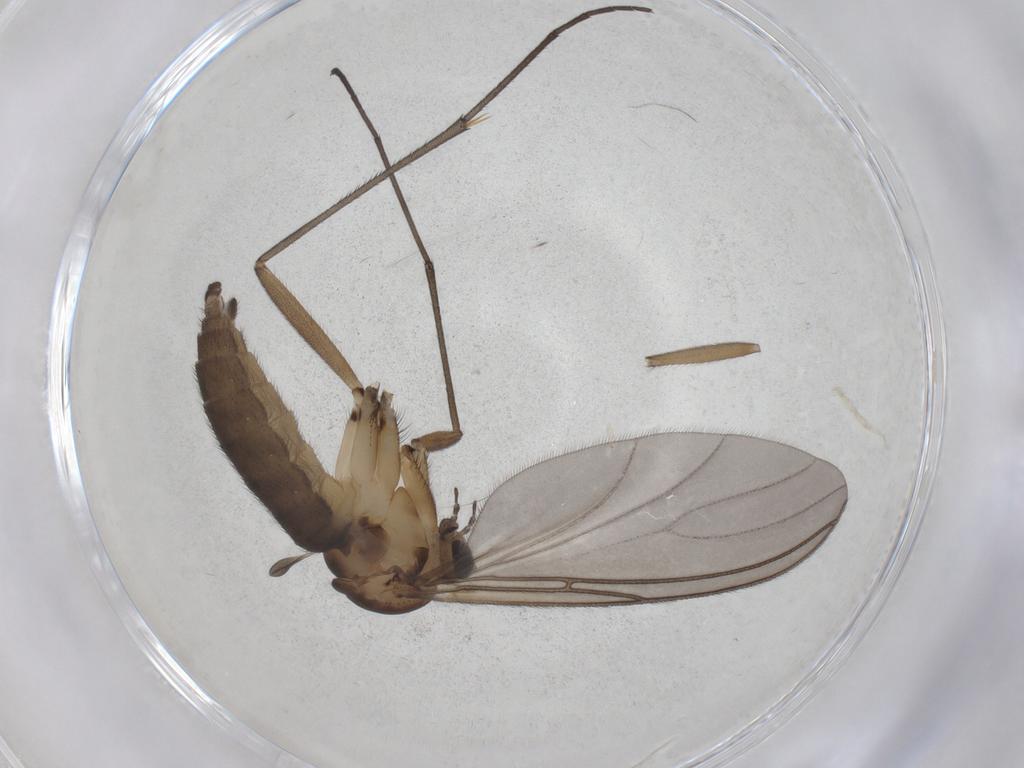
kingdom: Animalia
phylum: Arthropoda
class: Insecta
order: Diptera
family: Sciaridae
